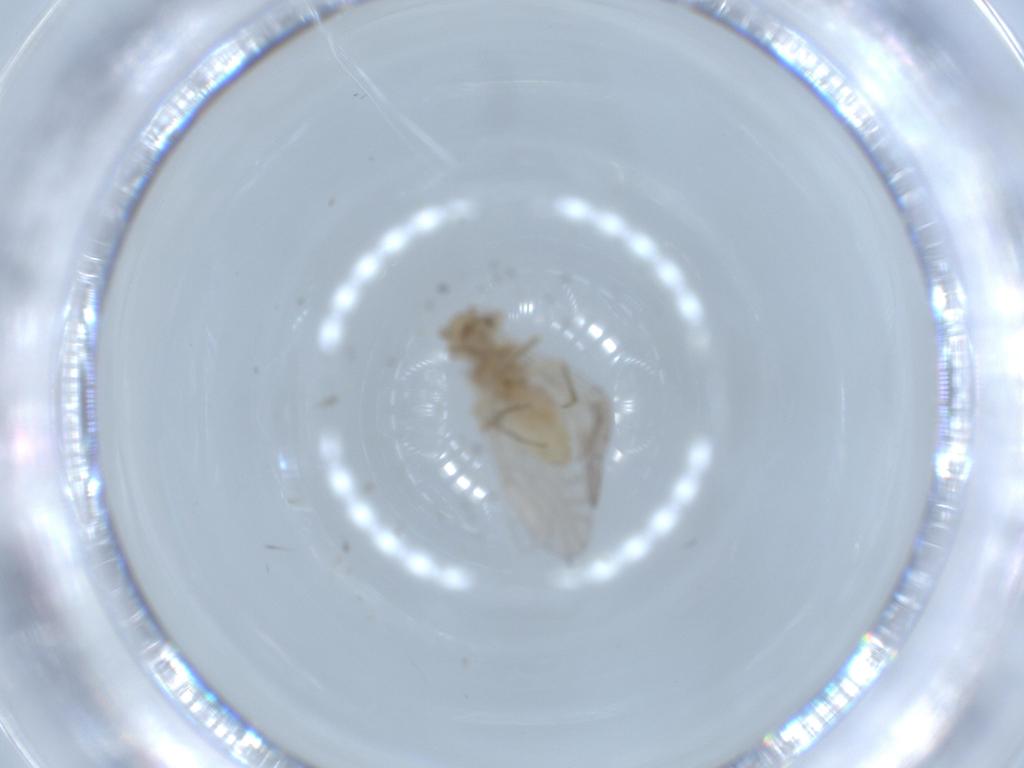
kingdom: Animalia
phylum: Arthropoda
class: Insecta
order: Psocodea
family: Lachesillidae
